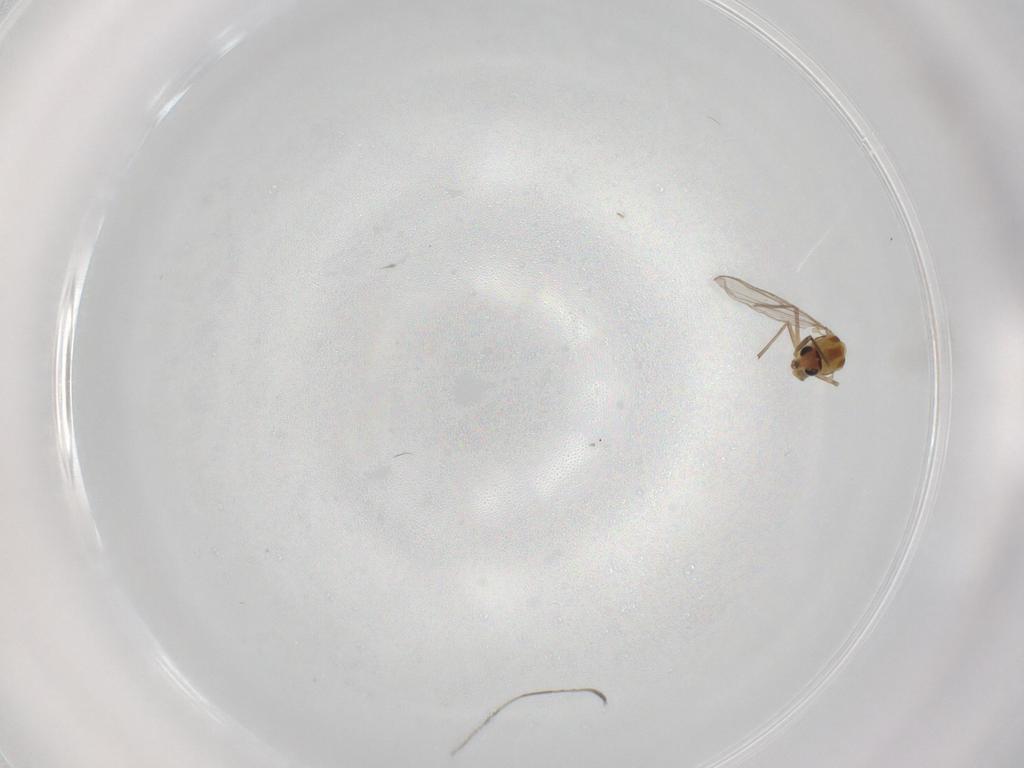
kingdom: Animalia
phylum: Arthropoda
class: Insecta
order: Diptera
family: Chironomidae
